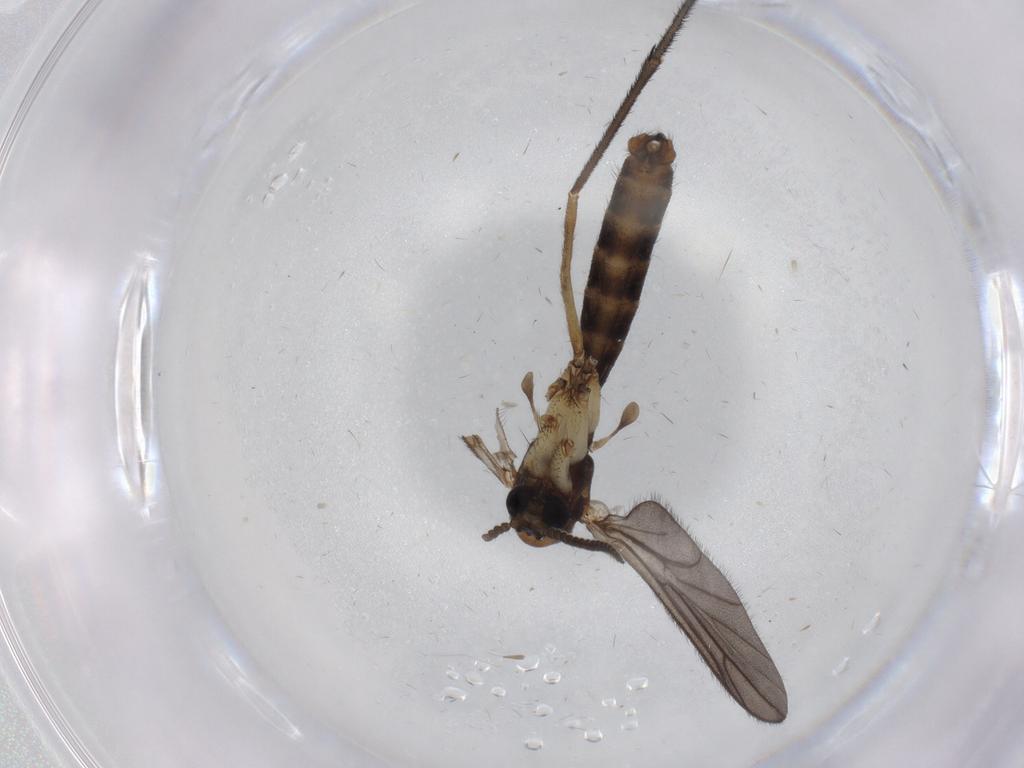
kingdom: Animalia
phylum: Arthropoda
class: Insecta
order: Diptera
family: Chironomidae
